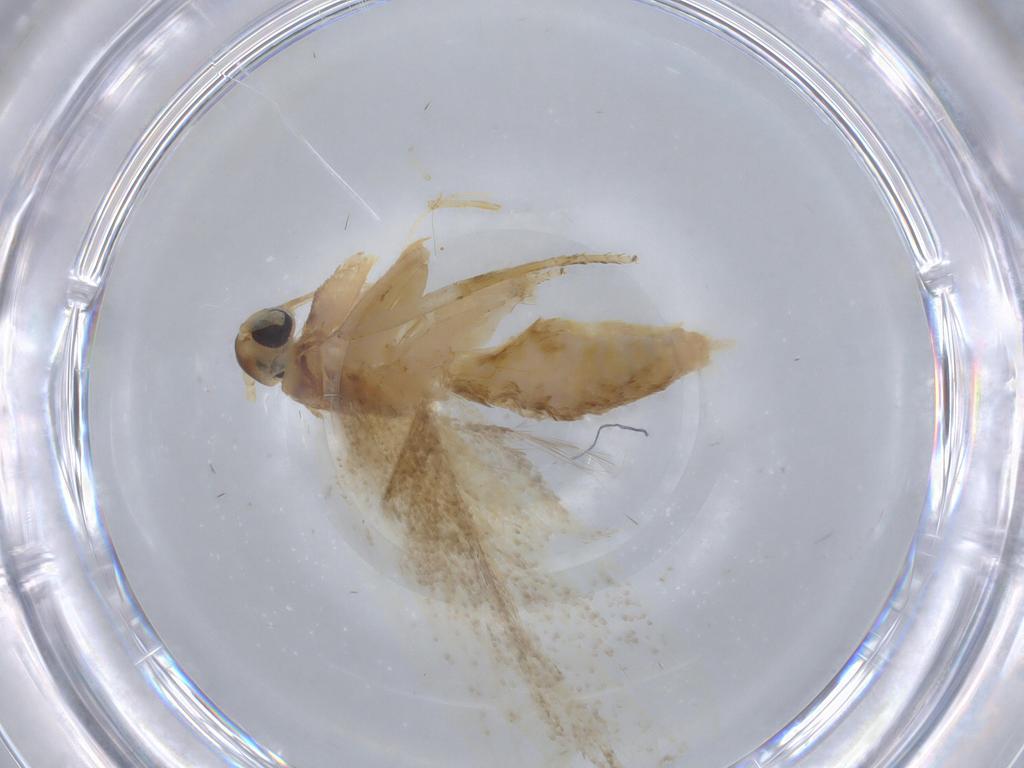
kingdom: Animalia
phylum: Arthropoda
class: Insecta
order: Lepidoptera
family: Lecithoceridae
